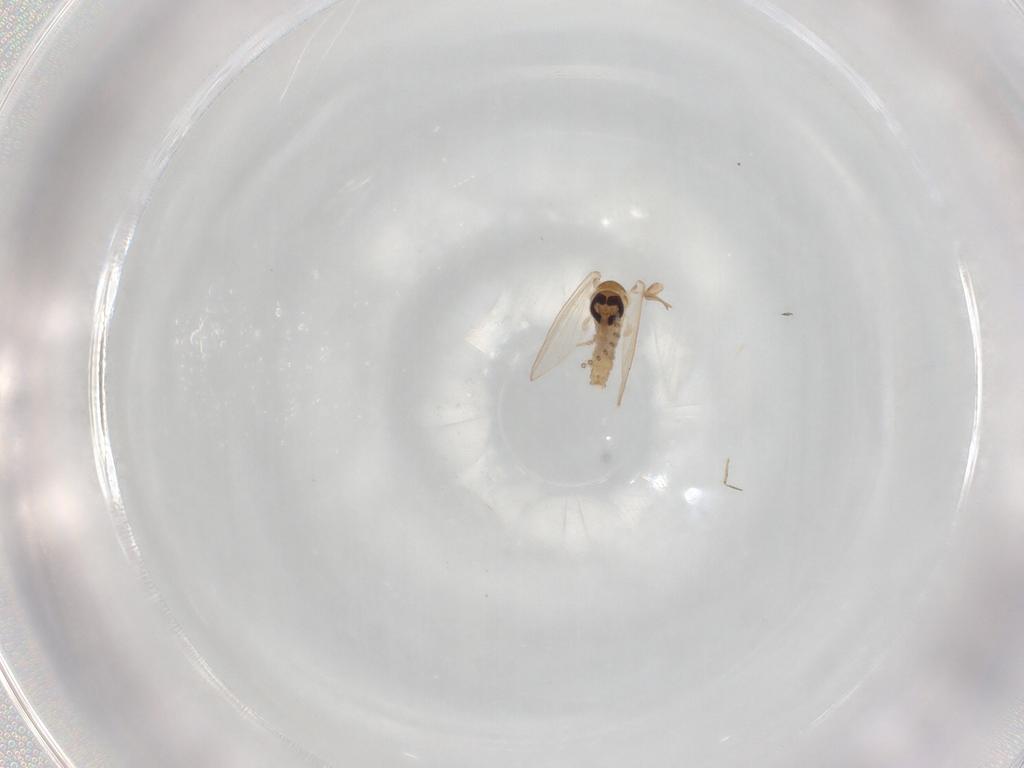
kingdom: Animalia
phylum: Arthropoda
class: Insecta
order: Diptera
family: Psychodidae
